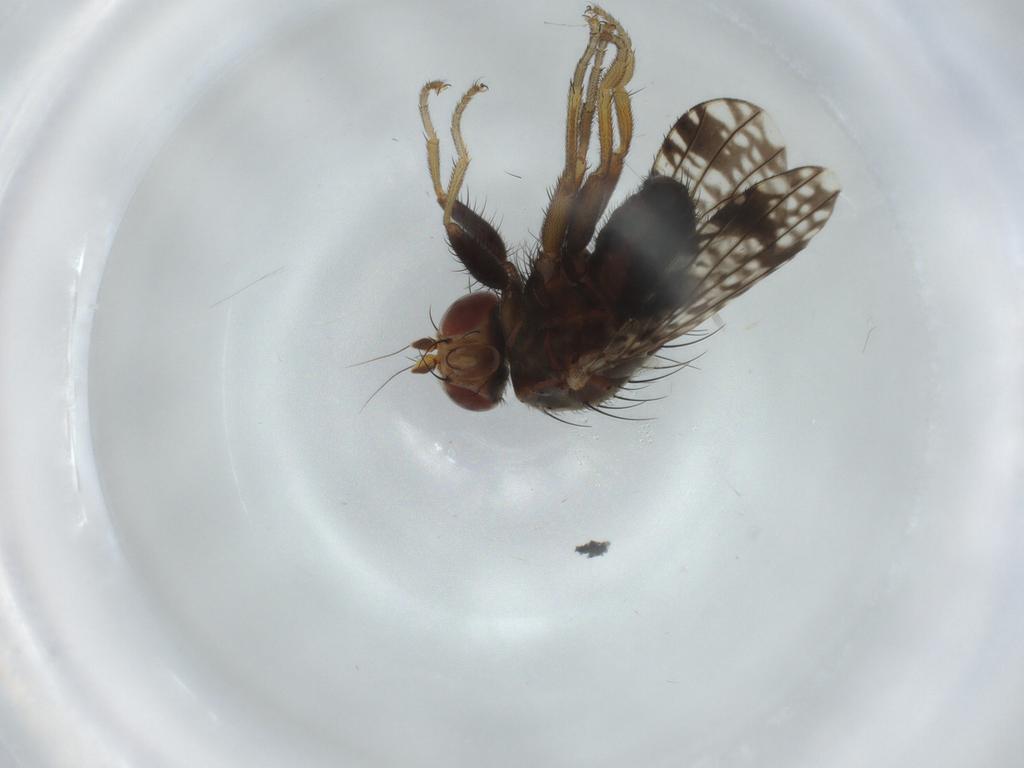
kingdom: Animalia
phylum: Arthropoda
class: Insecta
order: Diptera
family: Tephritidae
